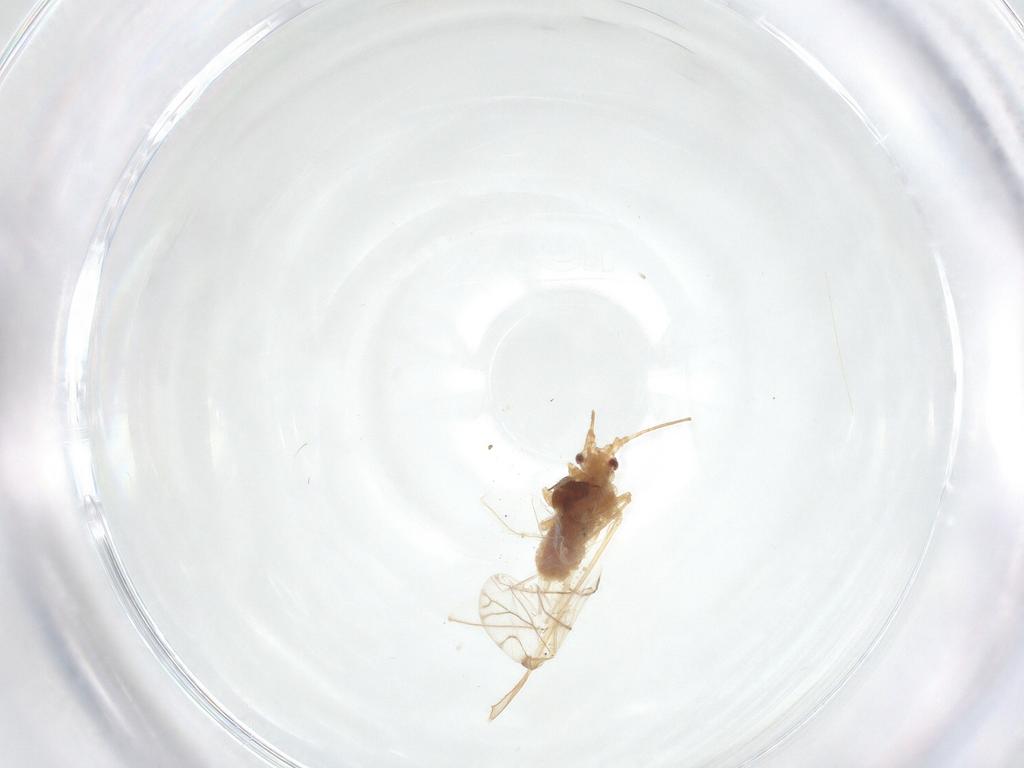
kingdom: Animalia
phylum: Arthropoda
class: Insecta
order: Hemiptera
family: Aphididae
